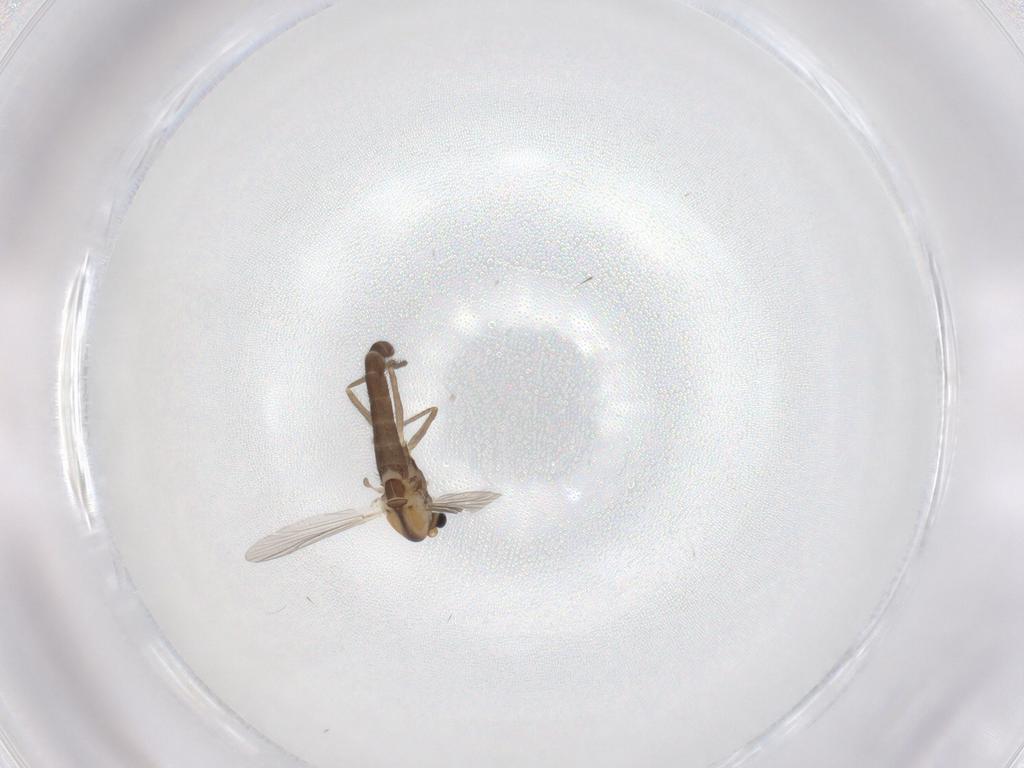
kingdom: Animalia
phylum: Arthropoda
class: Insecta
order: Diptera
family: Chironomidae
